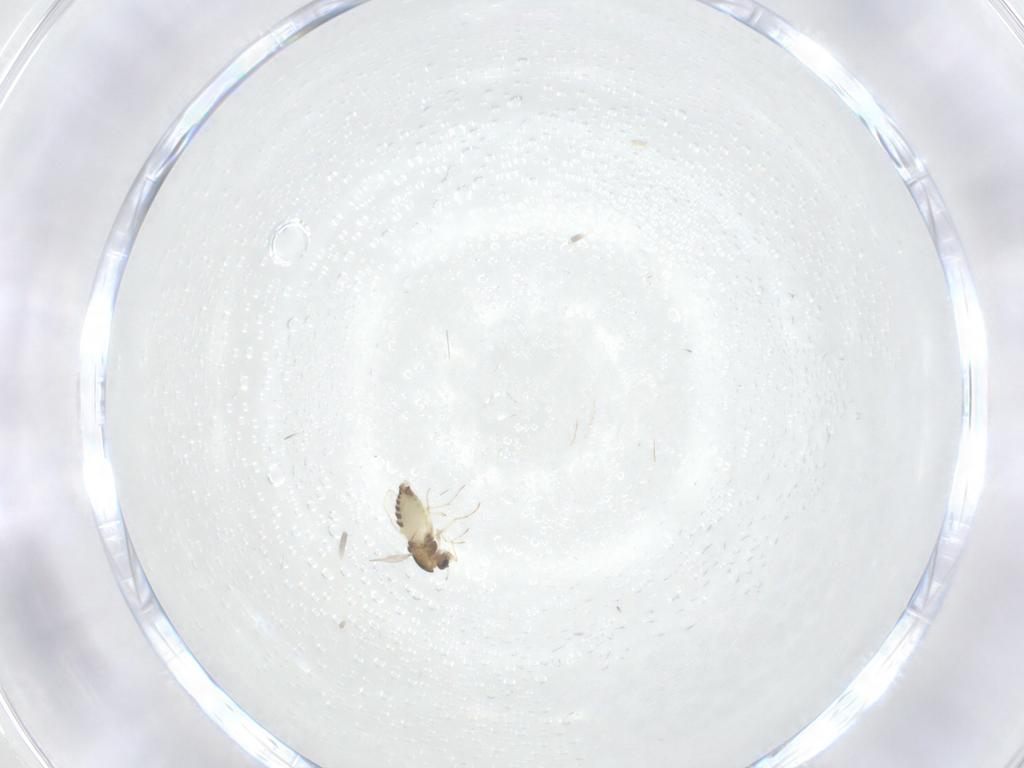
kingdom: Animalia
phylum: Arthropoda
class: Insecta
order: Diptera
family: Chironomidae
